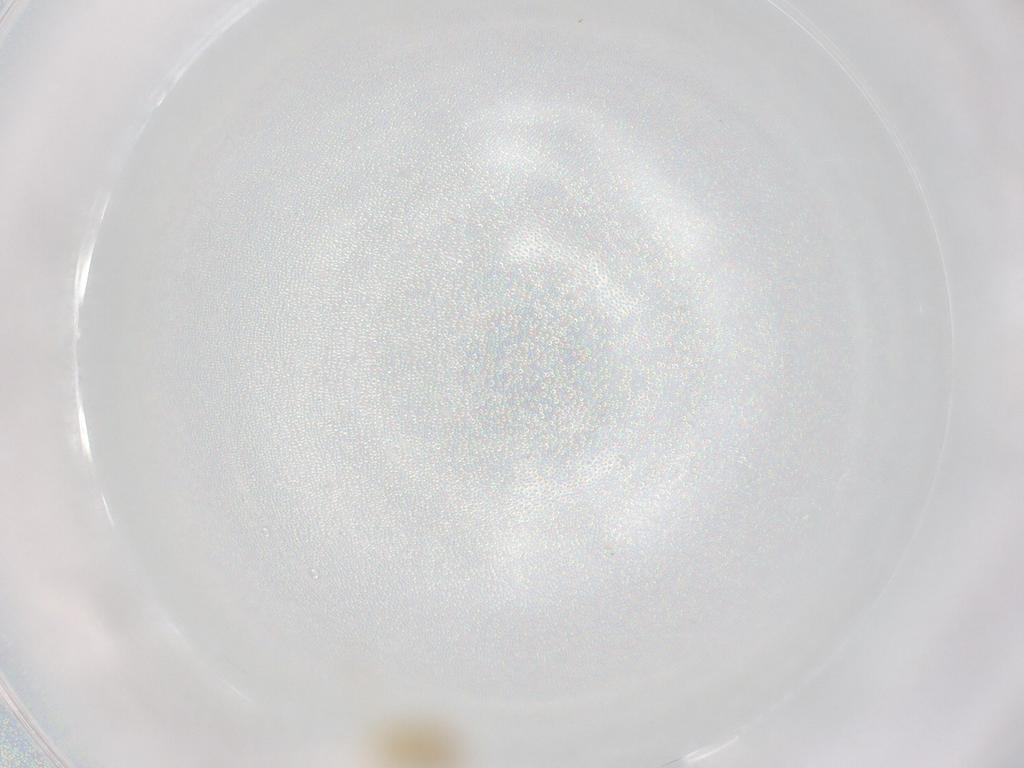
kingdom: Animalia
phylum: Arthropoda
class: Insecta
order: Psocodea
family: Lepidopsocidae
